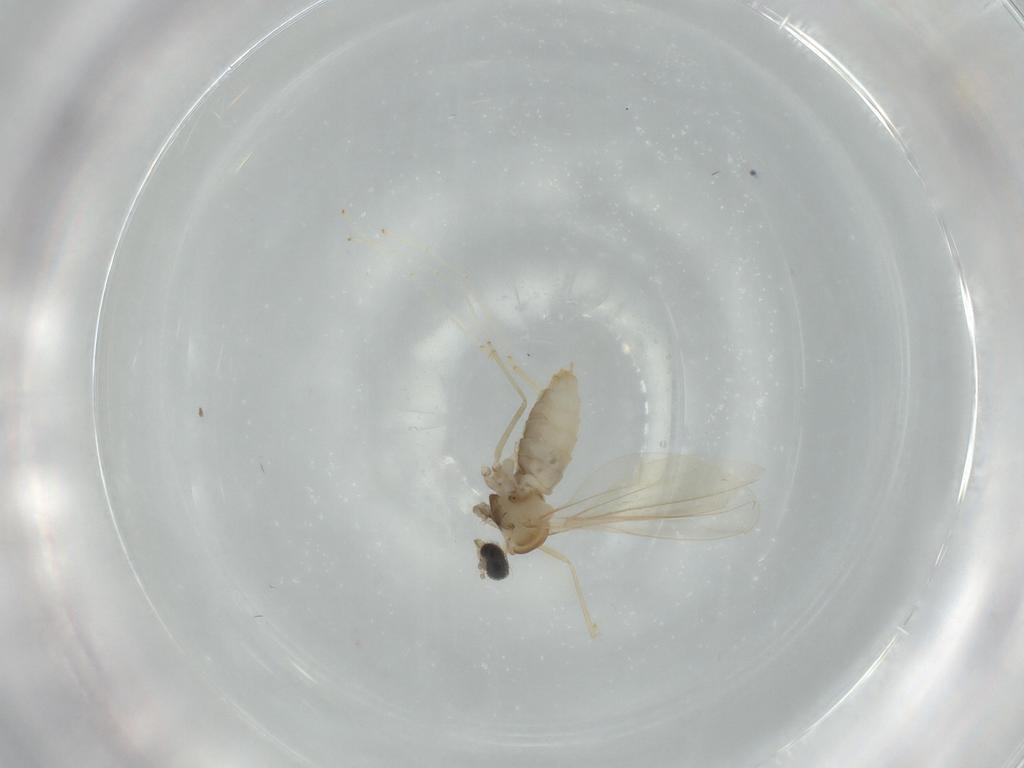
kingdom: Animalia
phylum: Arthropoda
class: Insecta
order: Diptera
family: Cecidomyiidae
